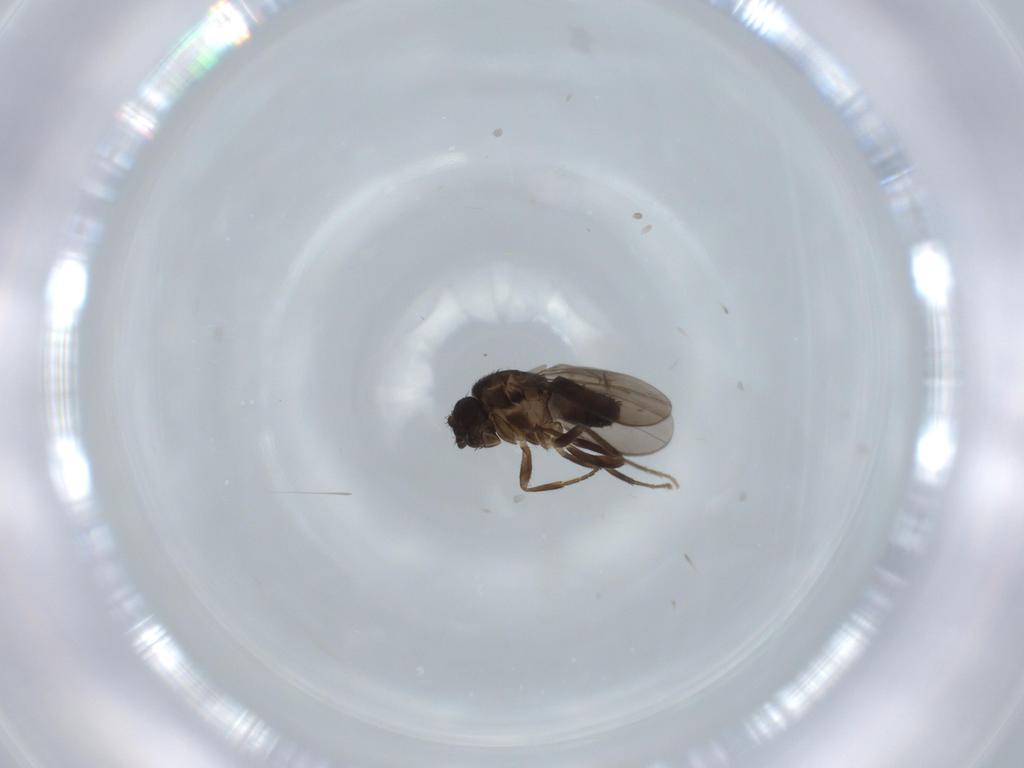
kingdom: Animalia
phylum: Arthropoda
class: Insecta
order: Diptera
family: Sphaeroceridae
